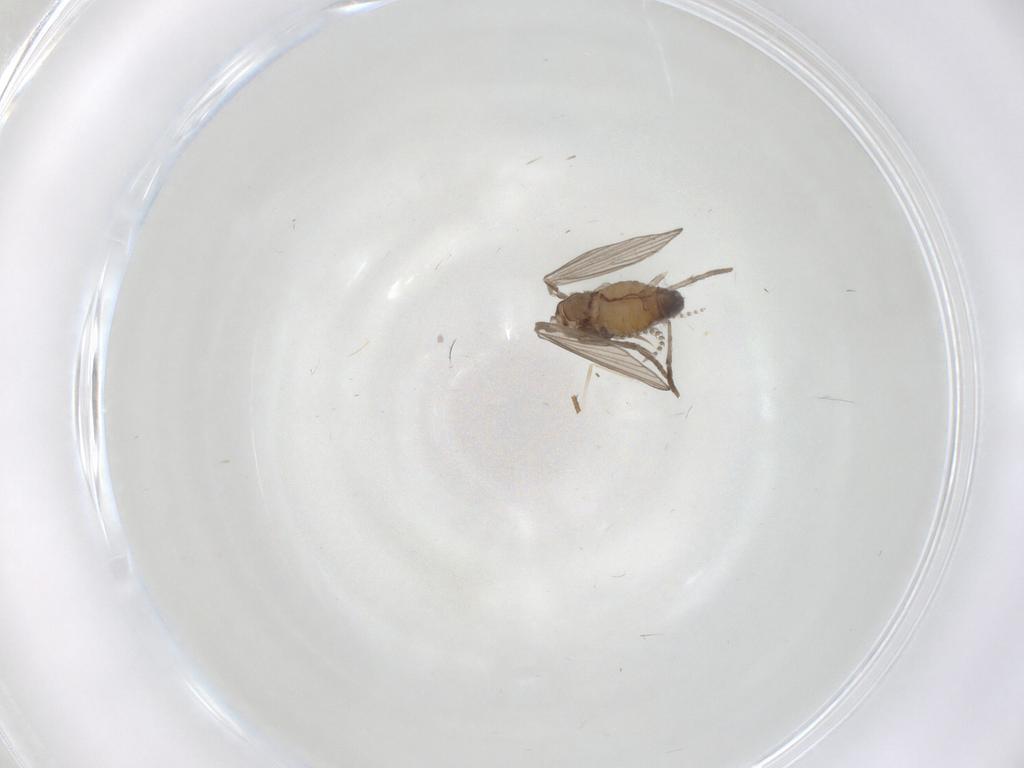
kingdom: Animalia
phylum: Arthropoda
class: Insecta
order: Diptera
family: Psychodidae
